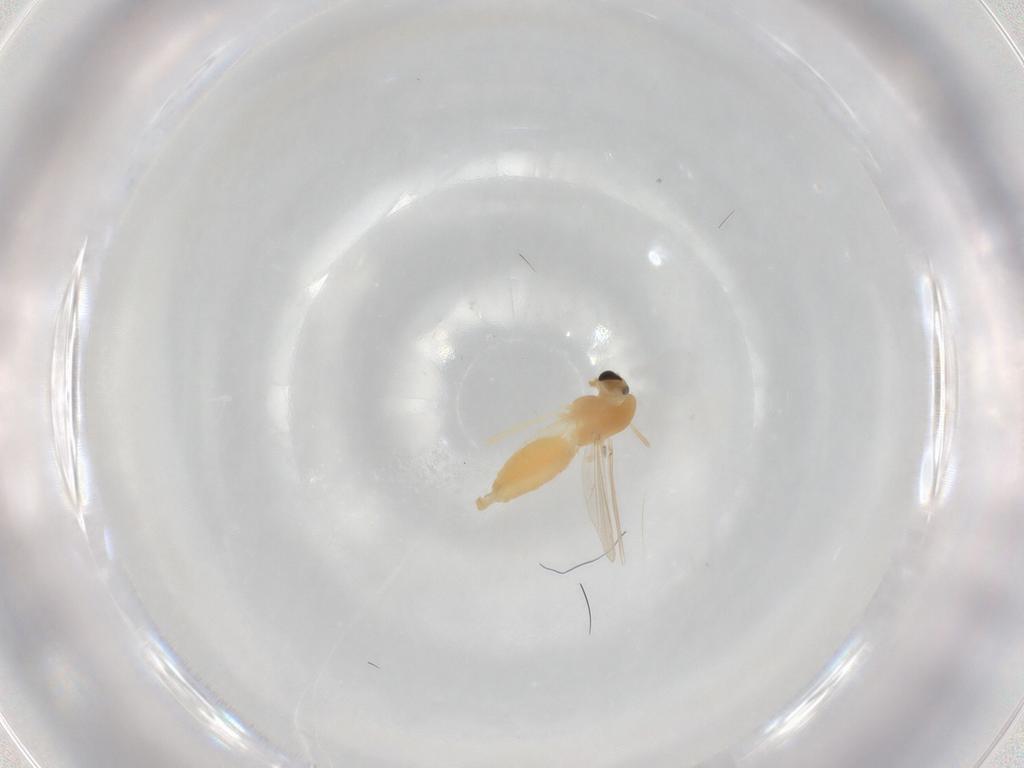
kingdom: Animalia
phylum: Arthropoda
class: Insecta
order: Diptera
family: Chironomidae
